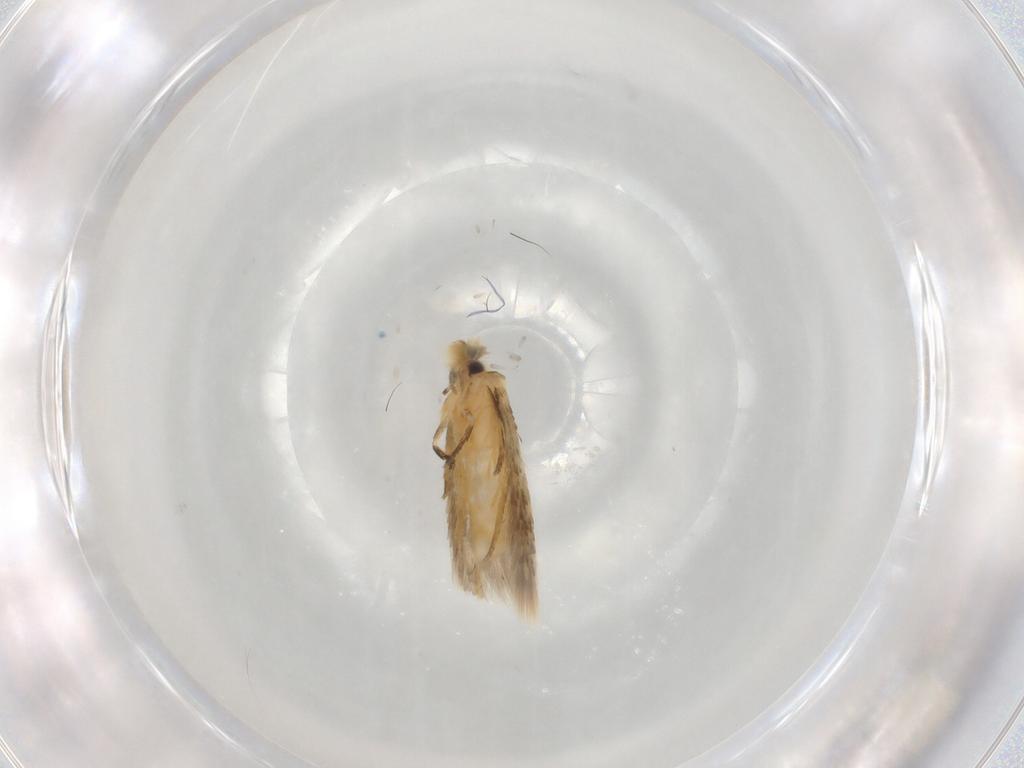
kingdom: Animalia
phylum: Arthropoda
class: Insecta
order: Lepidoptera
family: Nepticulidae
